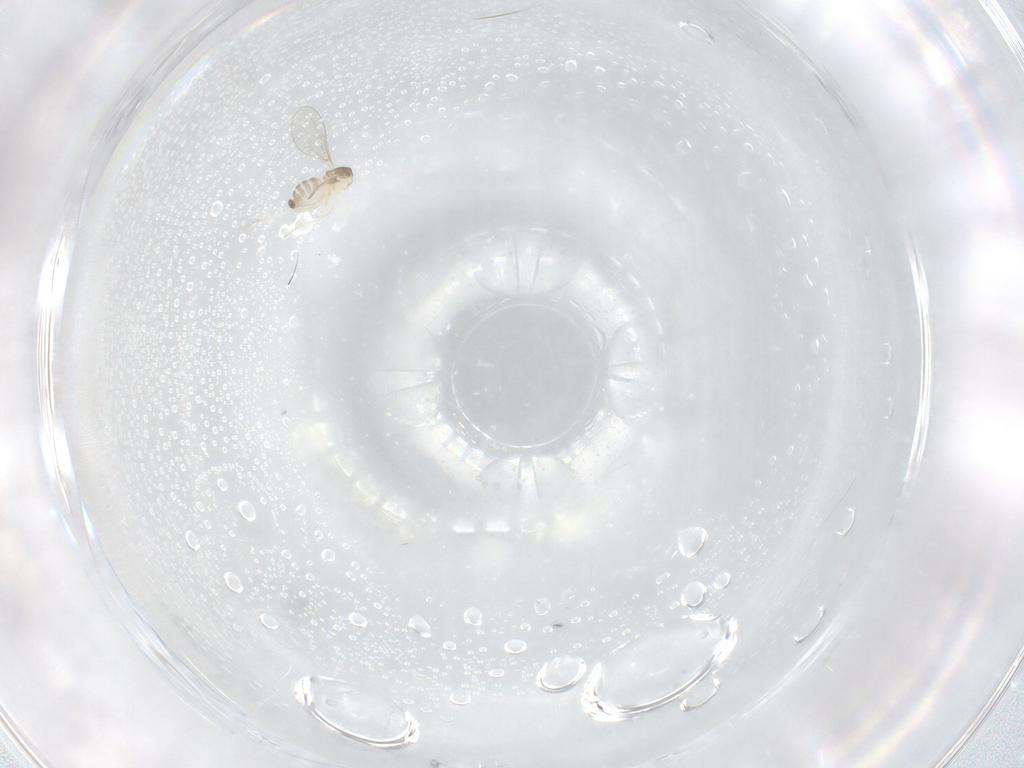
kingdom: Animalia
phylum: Arthropoda
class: Insecta
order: Diptera
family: Cecidomyiidae
